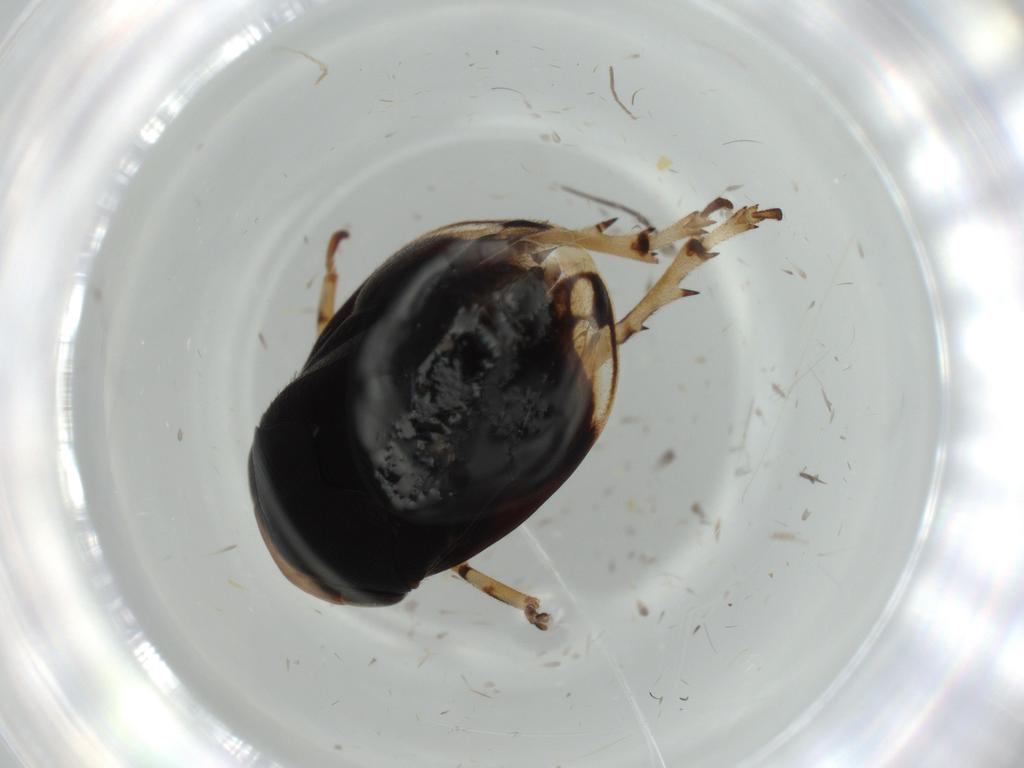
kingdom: Animalia
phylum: Arthropoda
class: Insecta
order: Hemiptera
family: Clastopteridae
